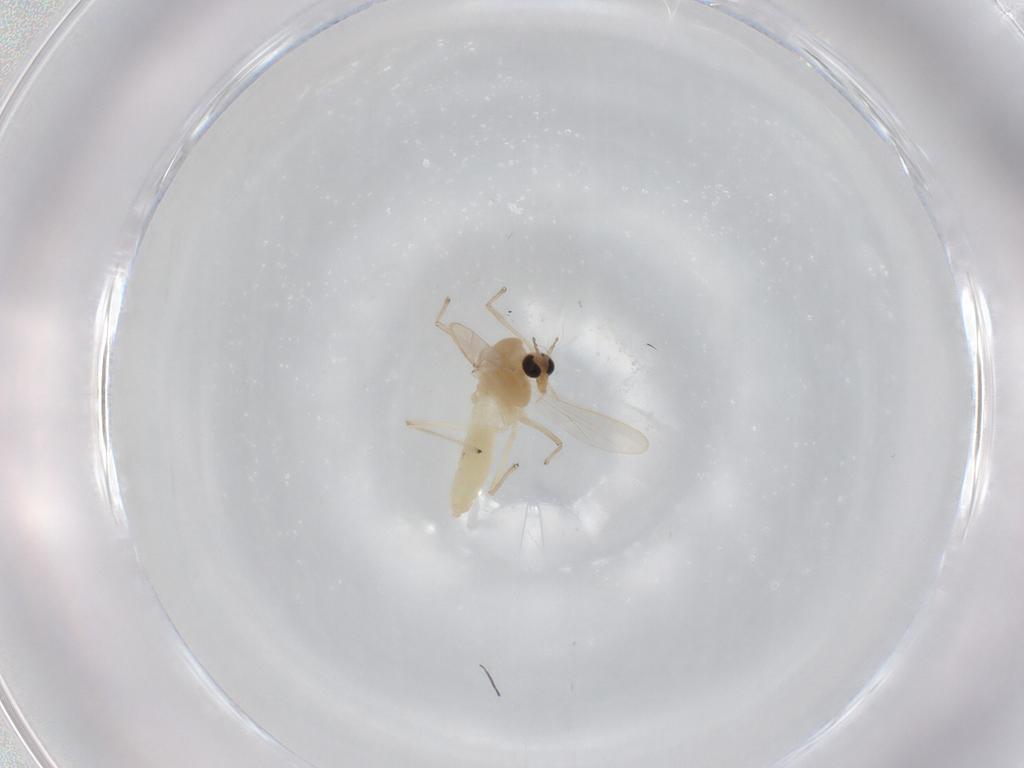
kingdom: Animalia
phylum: Arthropoda
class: Insecta
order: Diptera
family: Chironomidae
